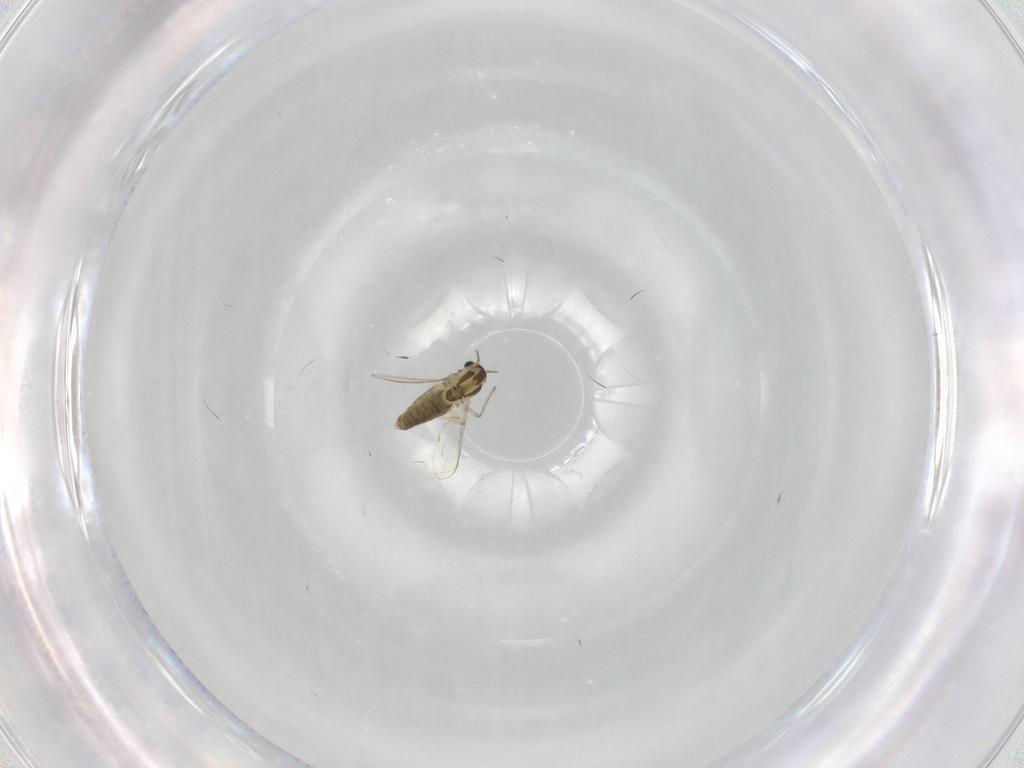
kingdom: Animalia
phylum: Arthropoda
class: Insecta
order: Diptera
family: Chironomidae
